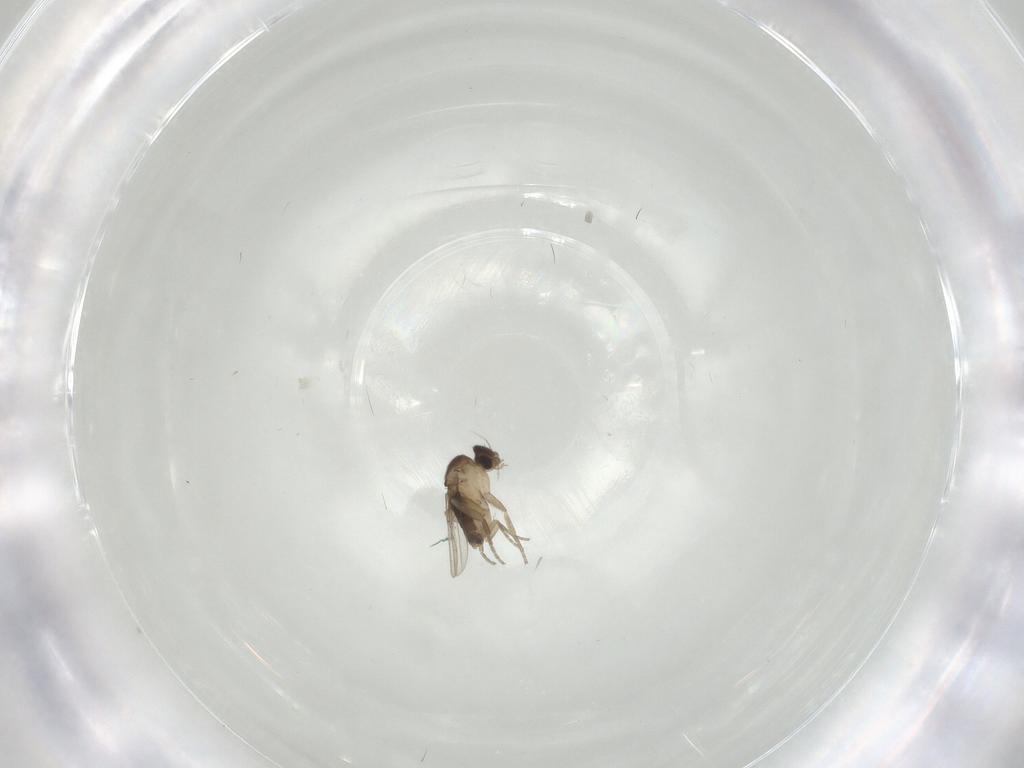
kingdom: Animalia
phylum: Arthropoda
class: Insecta
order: Diptera
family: Phoridae
